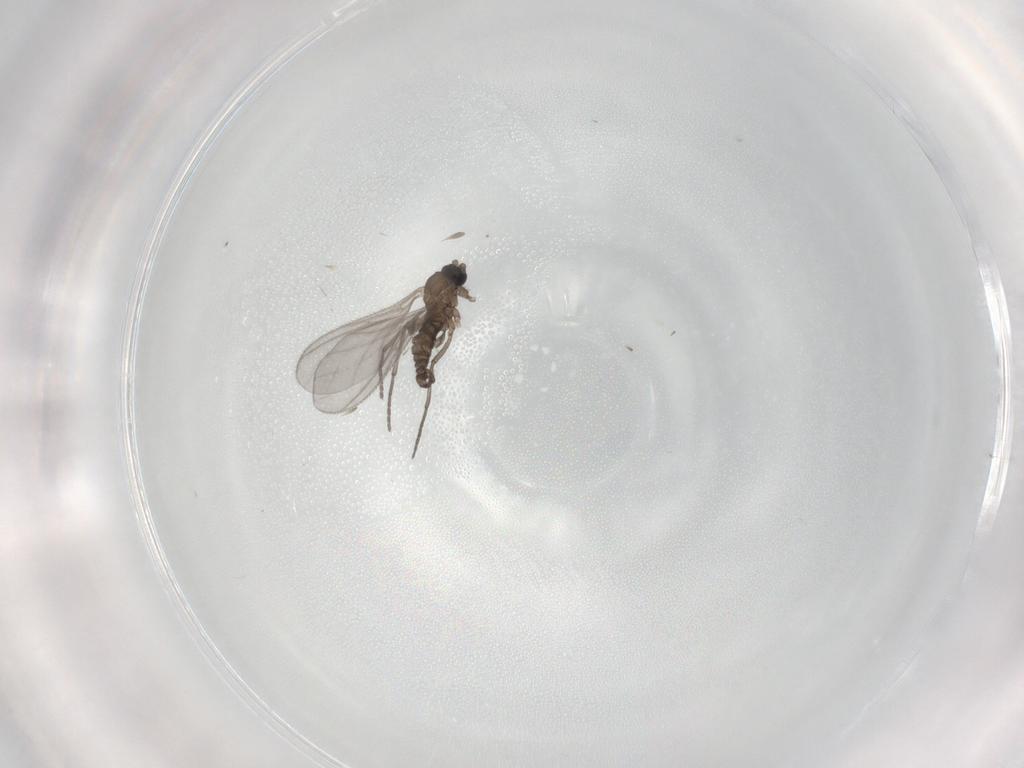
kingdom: Animalia
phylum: Arthropoda
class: Insecta
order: Diptera
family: Sciaridae
